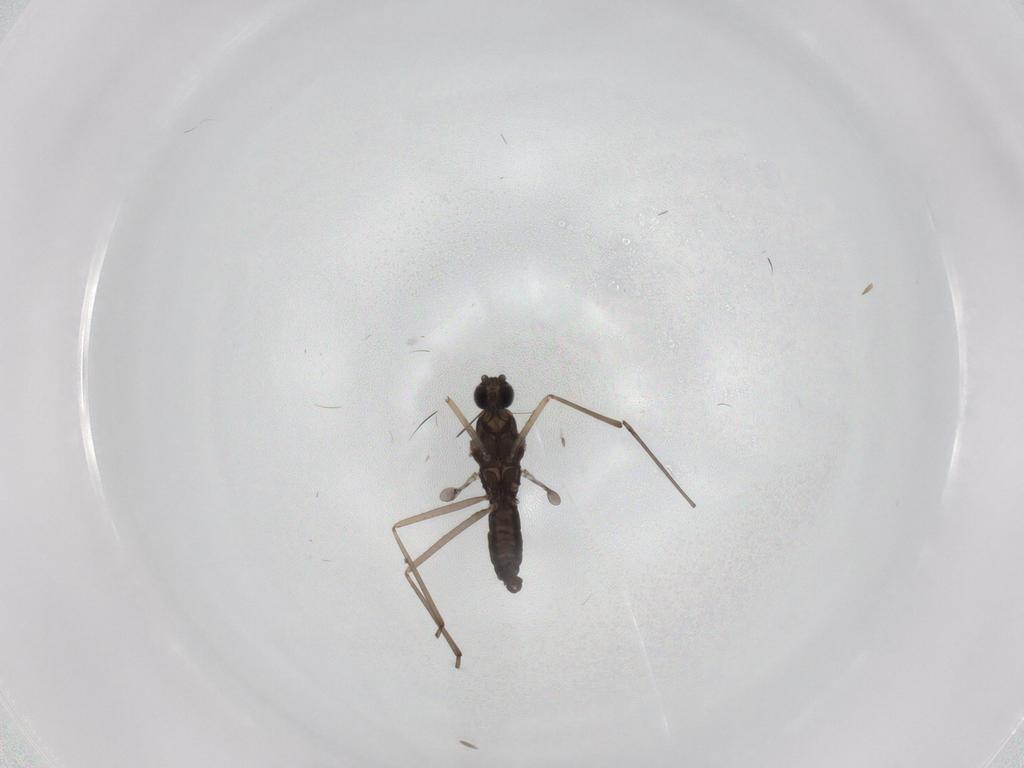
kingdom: Animalia
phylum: Arthropoda
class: Insecta
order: Diptera
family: Cecidomyiidae
